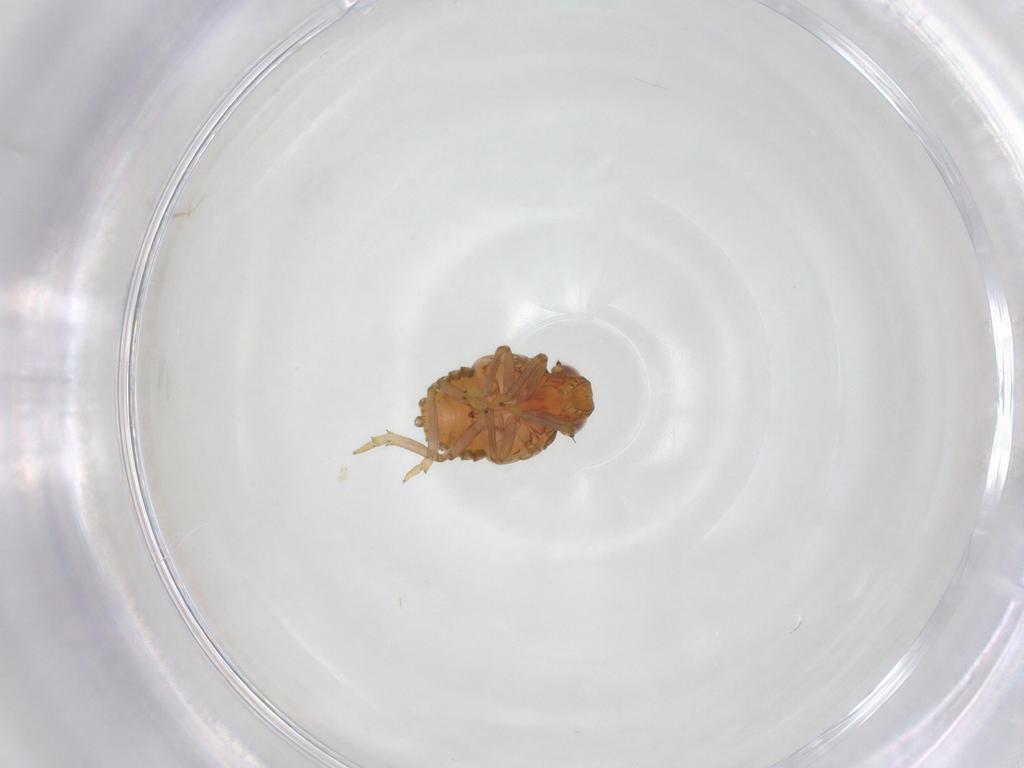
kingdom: Animalia
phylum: Arthropoda
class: Insecta
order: Hemiptera
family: Issidae
